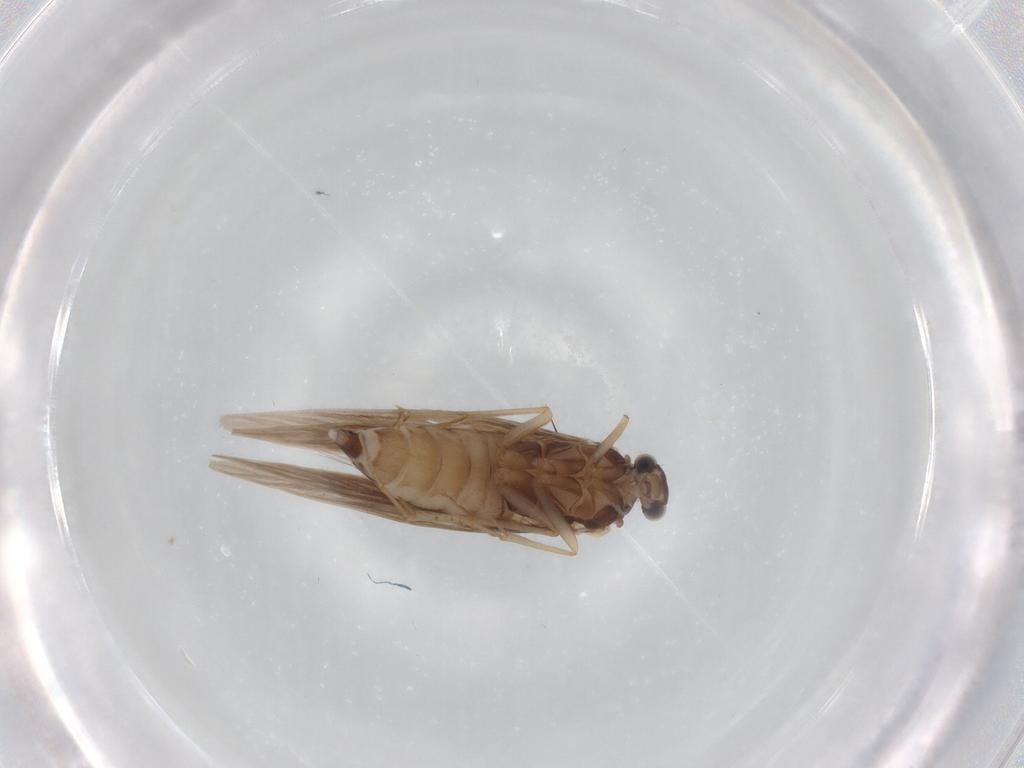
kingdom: Animalia
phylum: Arthropoda
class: Insecta
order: Trichoptera
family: Hydroptilidae
